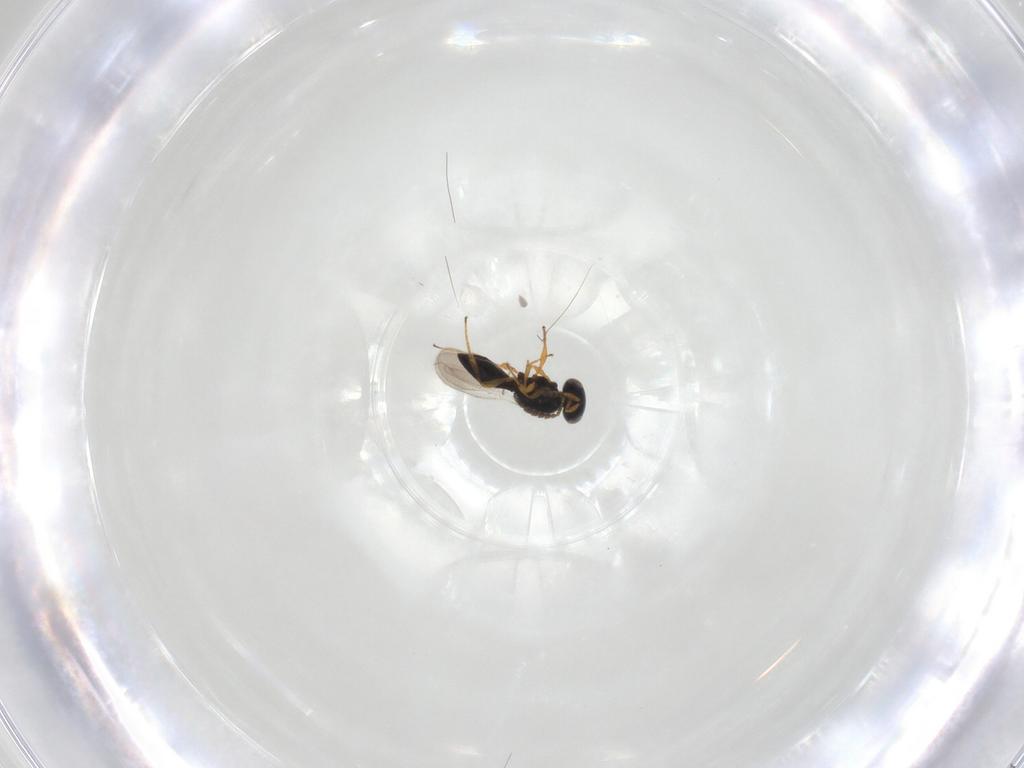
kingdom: Animalia
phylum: Arthropoda
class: Insecta
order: Hymenoptera
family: Platygastridae
